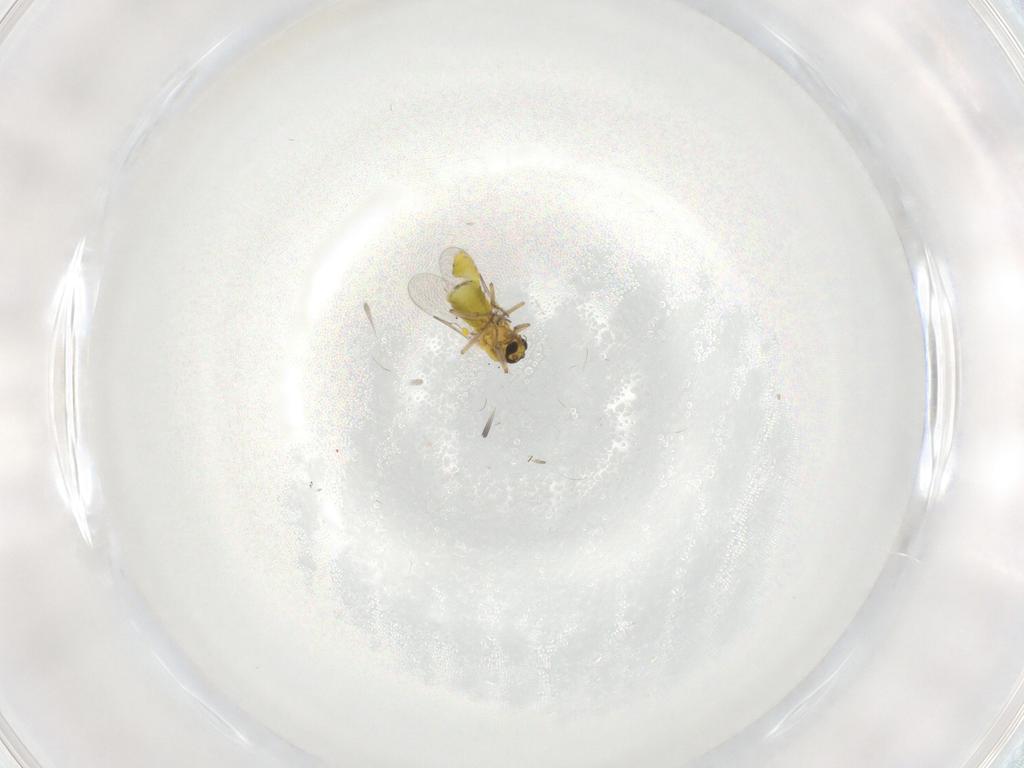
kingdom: Animalia
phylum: Arthropoda
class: Insecta
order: Diptera
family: Ceratopogonidae
